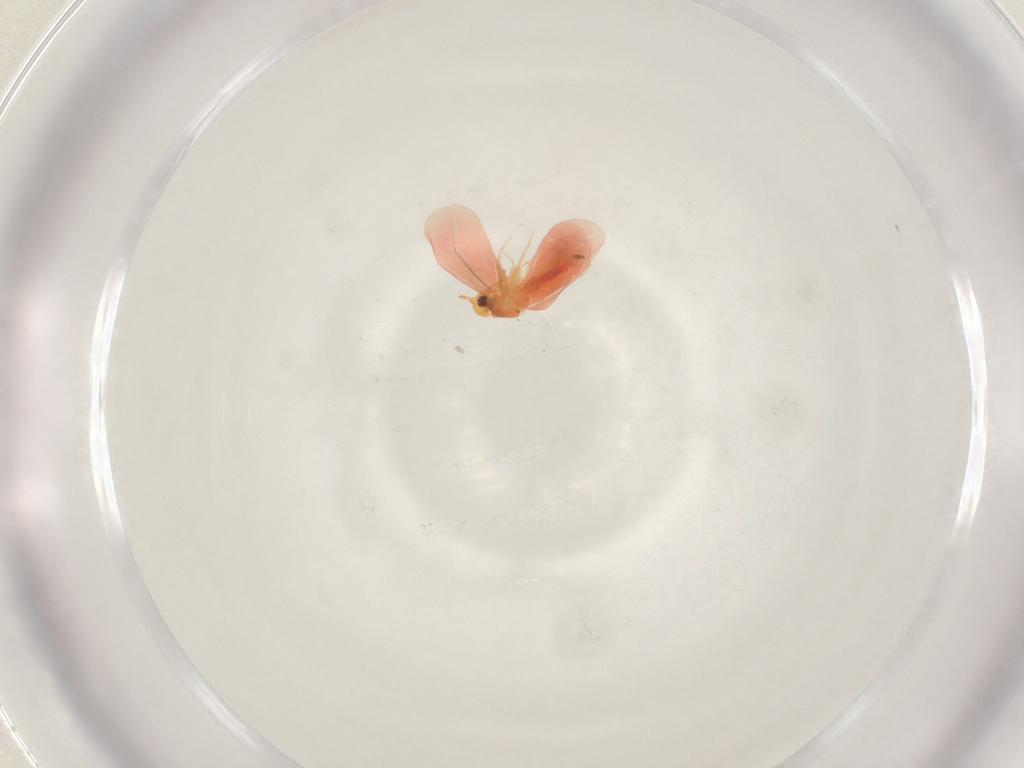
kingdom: Animalia
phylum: Arthropoda
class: Insecta
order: Hemiptera
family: Aleyrodidae
